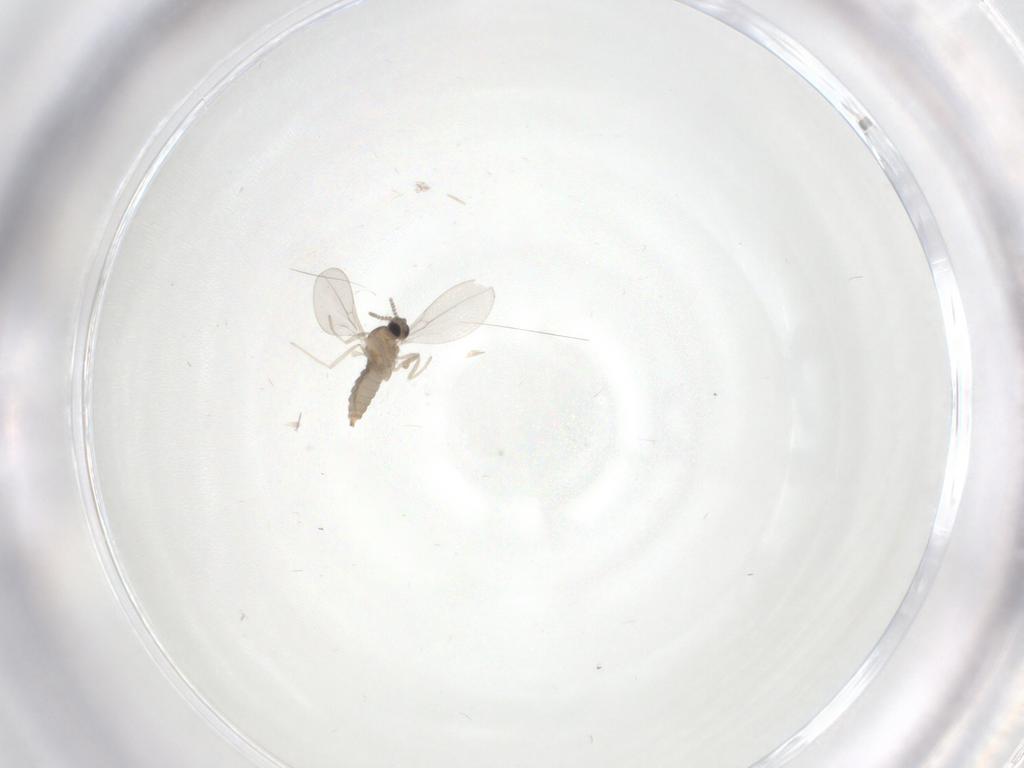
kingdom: Animalia
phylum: Arthropoda
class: Insecta
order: Diptera
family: Cecidomyiidae
